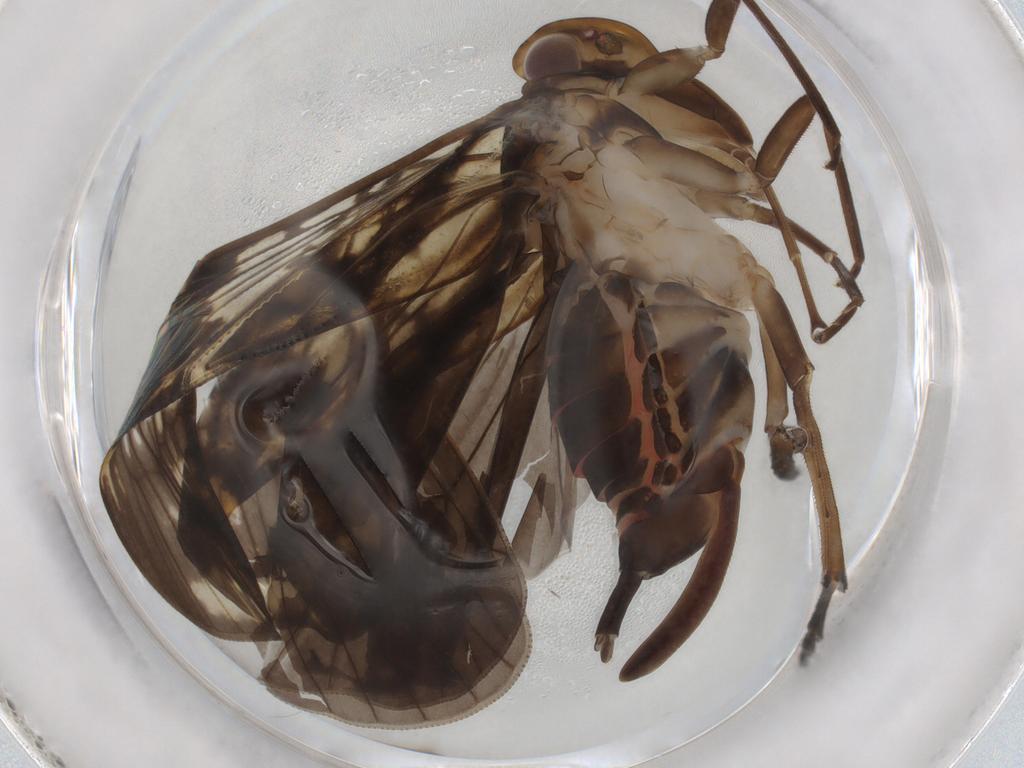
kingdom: Animalia
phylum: Arthropoda
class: Insecta
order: Hemiptera
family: Cixiidae
